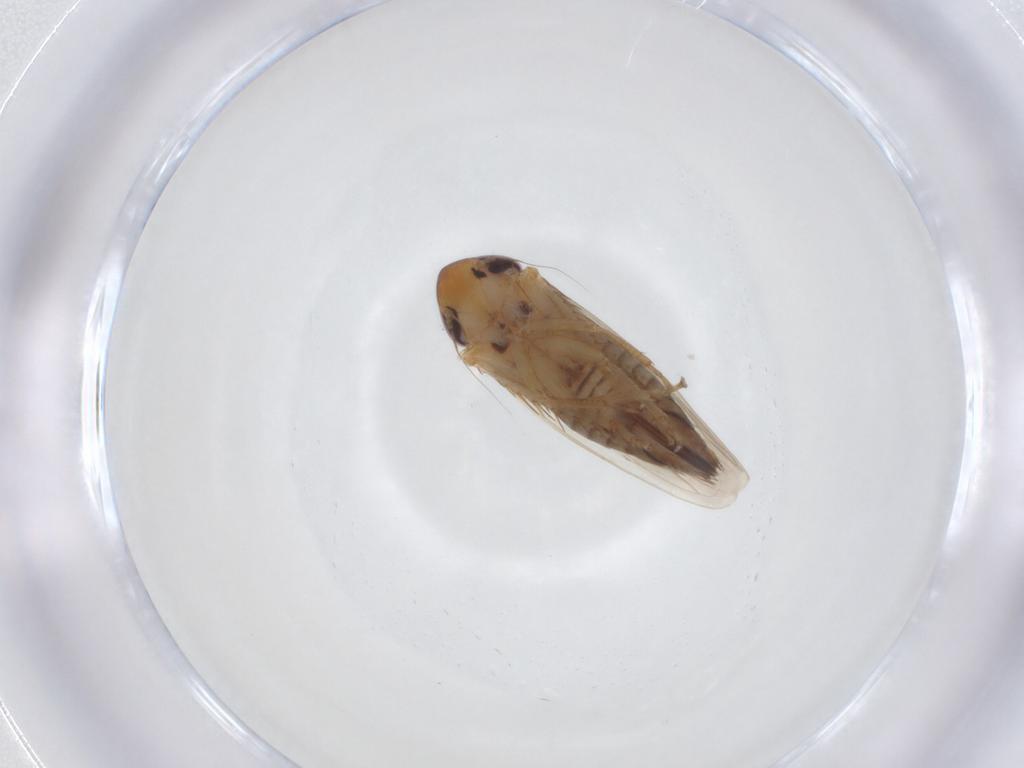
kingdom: Animalia
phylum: Arthropoda
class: Insecta
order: Hemiptera
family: Cicadellidae
